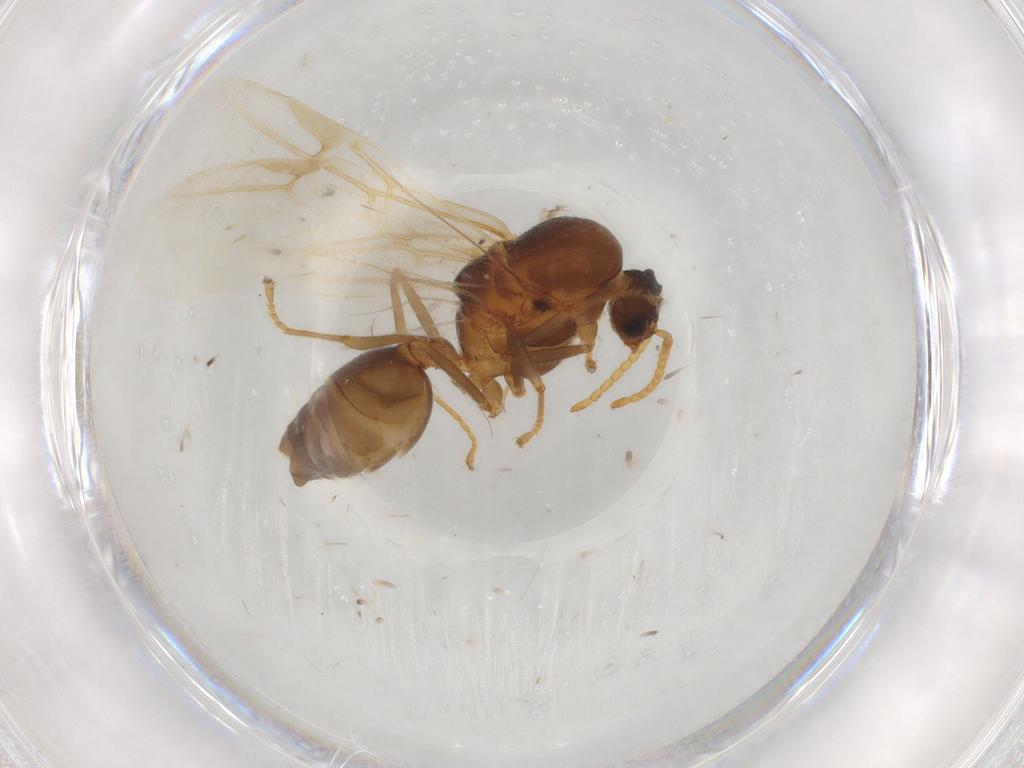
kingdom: Animalia
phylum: Arthropoda
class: Insecta
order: Hymenoptera
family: Formicidae
